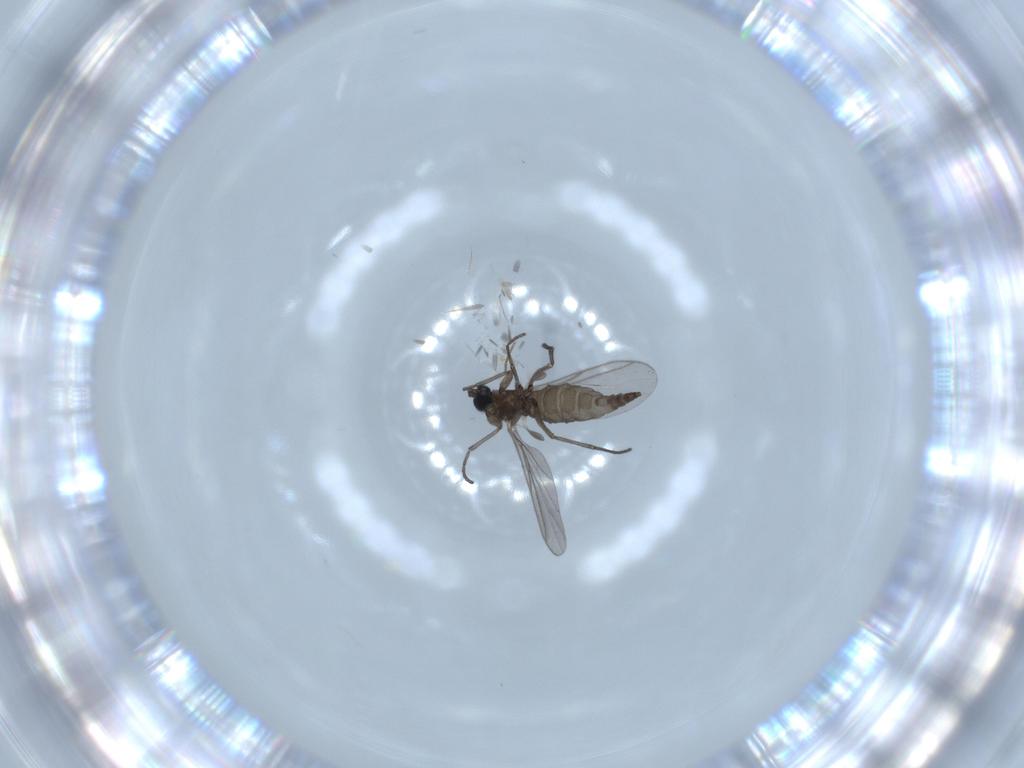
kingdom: Animalia
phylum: Arthropoda
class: Insecta
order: Diptera
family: Chironomidae
